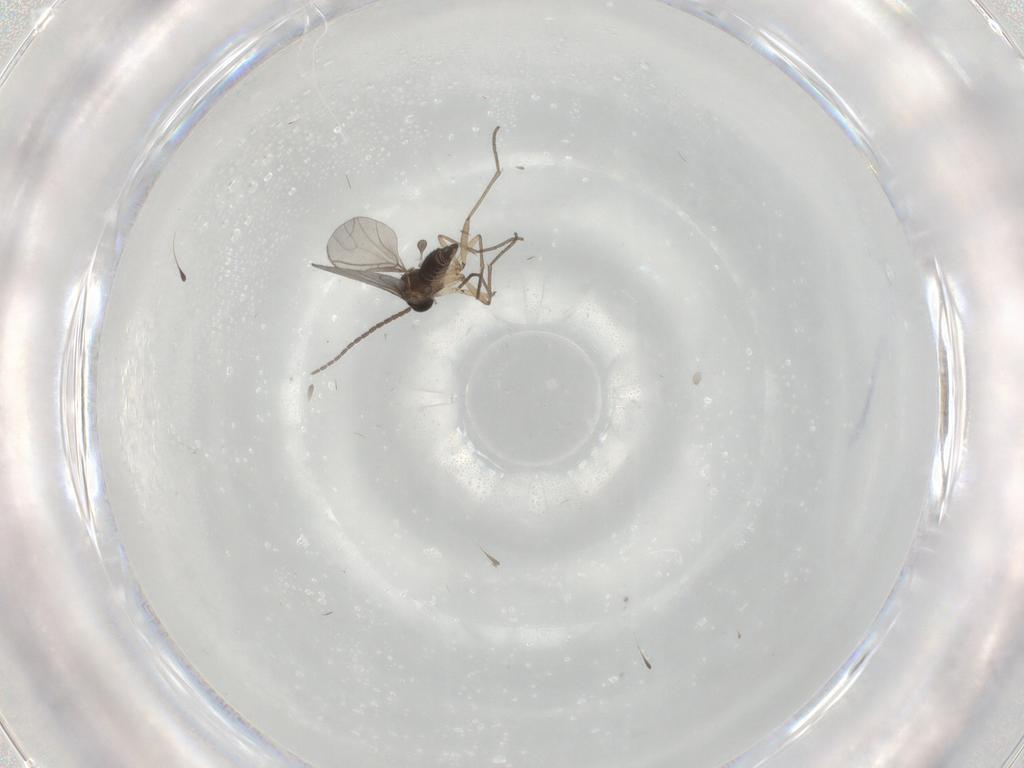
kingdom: Animalia
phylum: Arthropoda
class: Insecta
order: Diptera
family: Sciaridae
